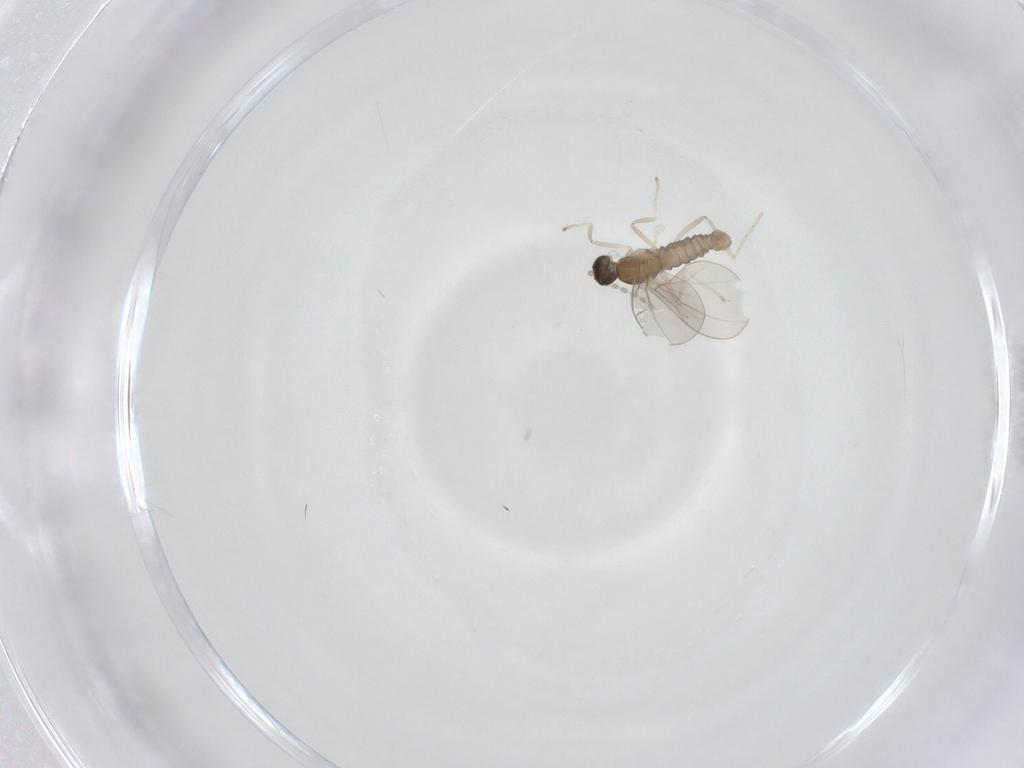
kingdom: Animalia
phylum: Arthropoda
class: Insecta
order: Diptera
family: Cecidomyiidae
